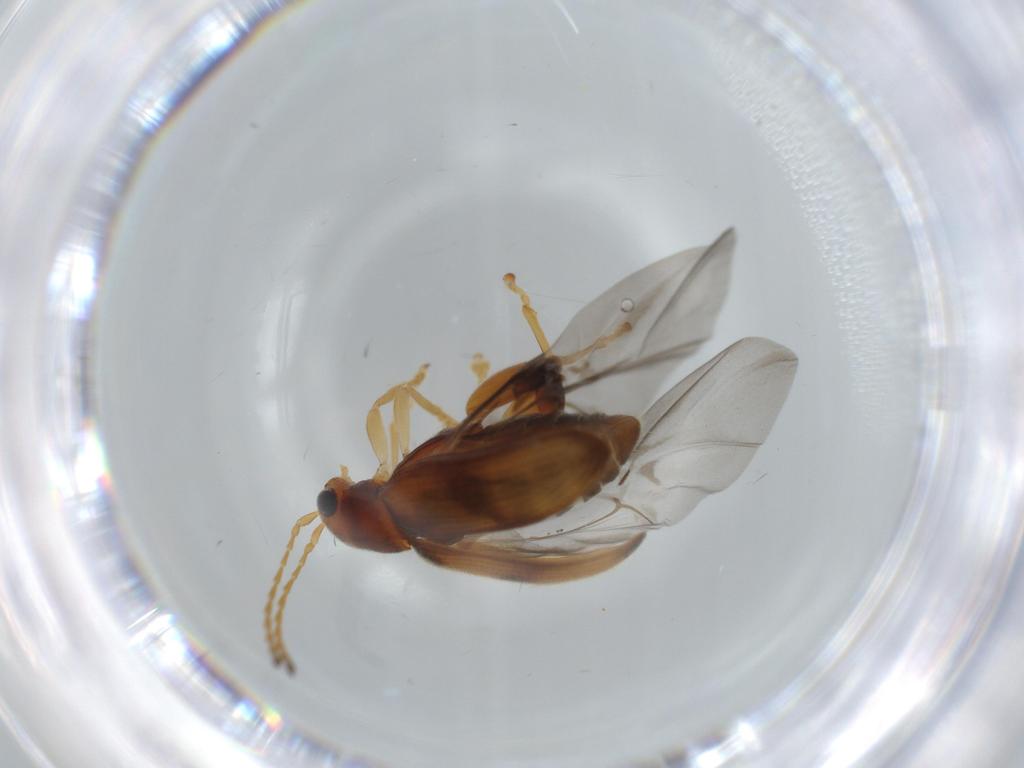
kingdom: Animalia
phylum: Arthropoda
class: Insecta
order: Coleoptera
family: Chrysomelidae
